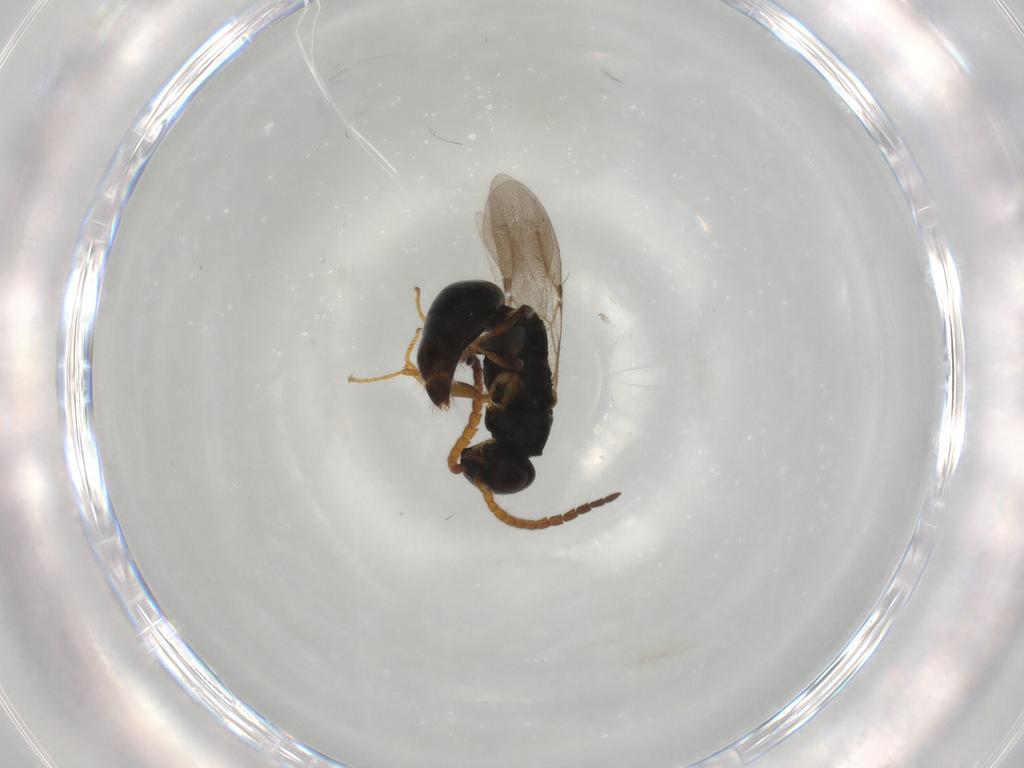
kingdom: Animalia
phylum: Arthropoda
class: Insecta
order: Hymenoptera
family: Bethylidae
